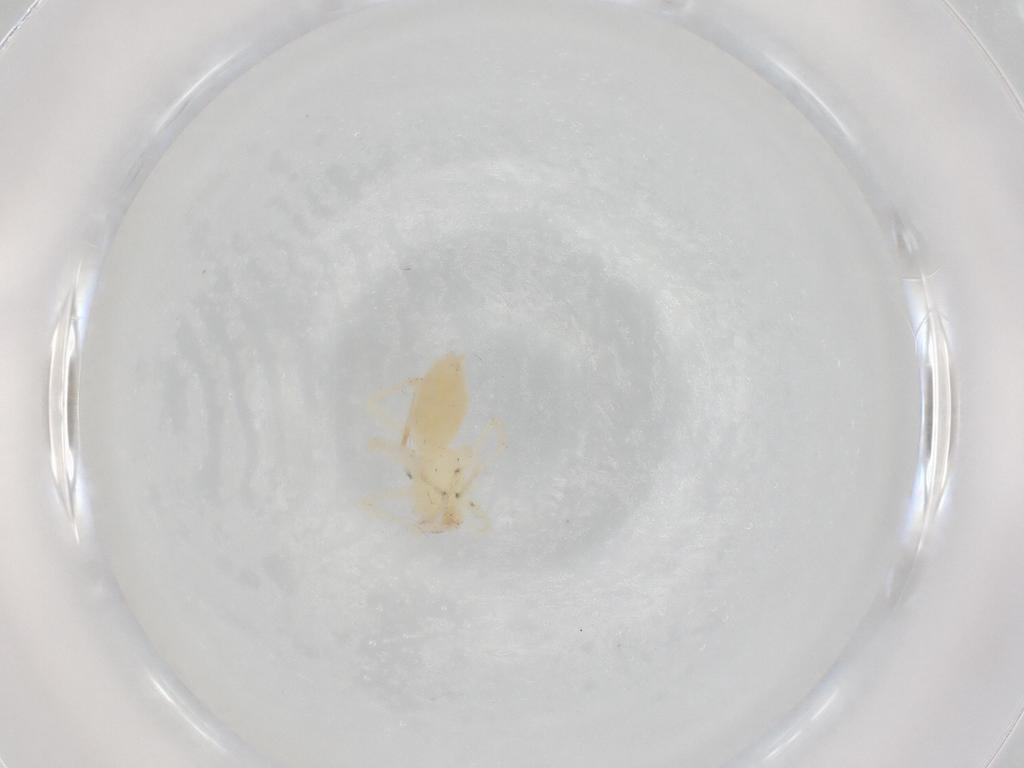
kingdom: Animalia
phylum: Arthropoda
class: Arachnida
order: Araneae
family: Anyphaenidae
